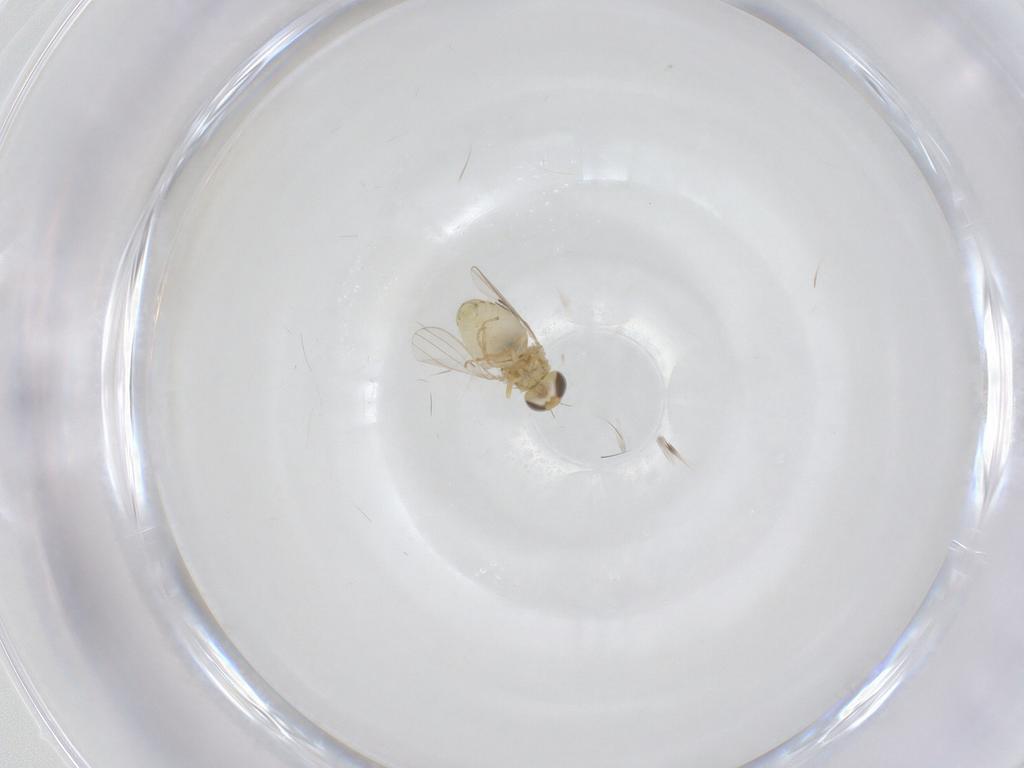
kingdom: Animalia
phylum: Arthropoda
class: Insecta
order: Diptera
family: Chyromyidae
